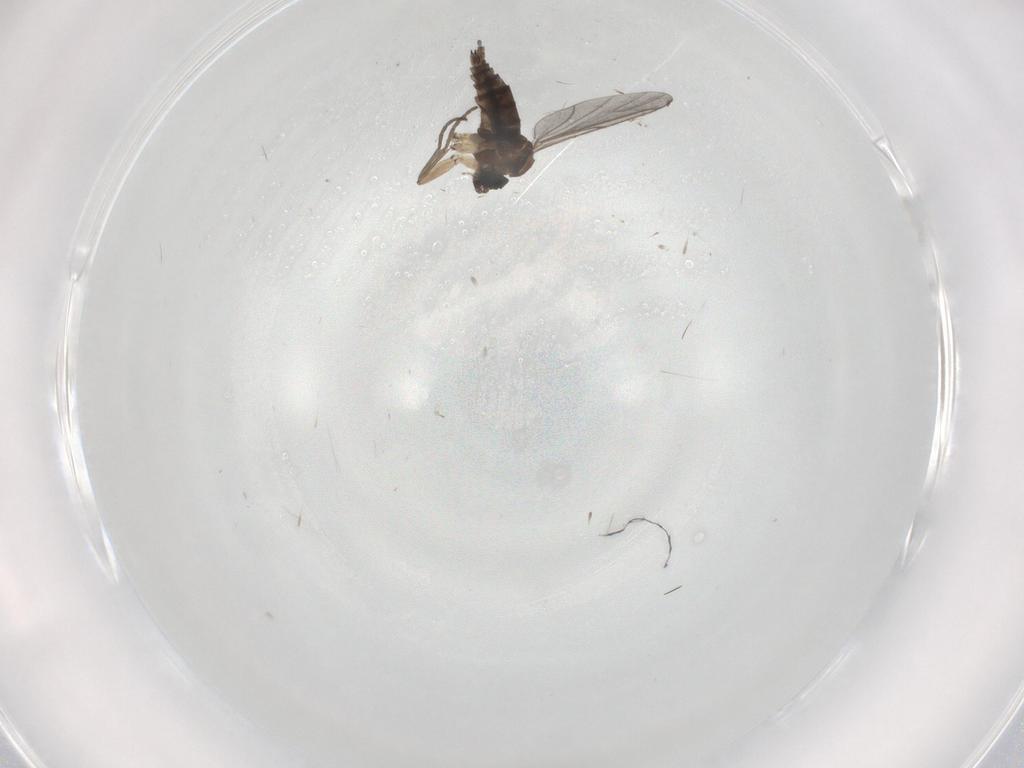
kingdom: Animalia
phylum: Arthropoda
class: Insecta
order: Diptera
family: Sciaridae
